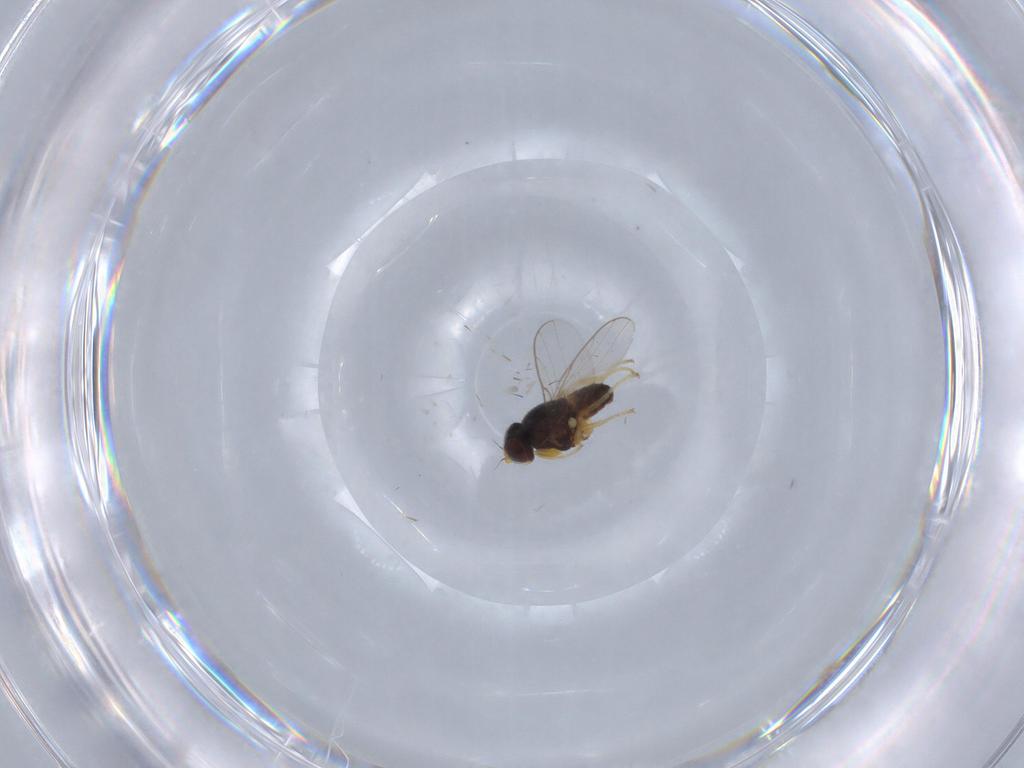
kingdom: Animalia
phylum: Arthropoda
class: Insecta
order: Diptera
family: Chloropidae
